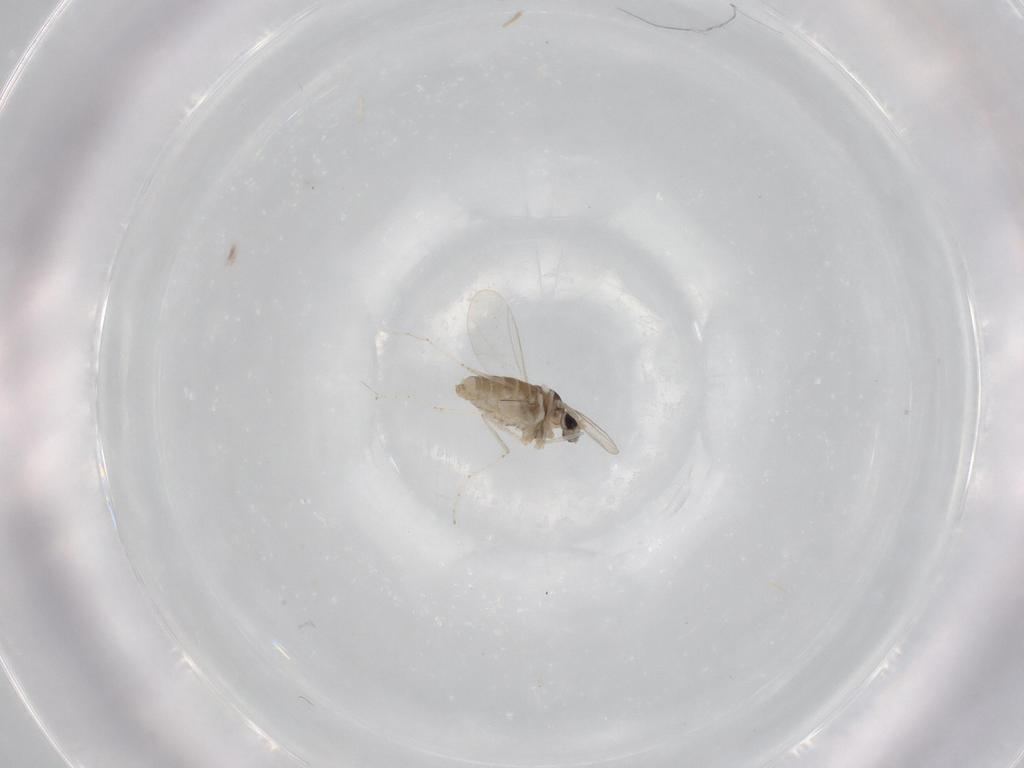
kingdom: Animalia
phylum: Arthropoda
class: Insecta
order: Diptera
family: Cecidomyiidae
